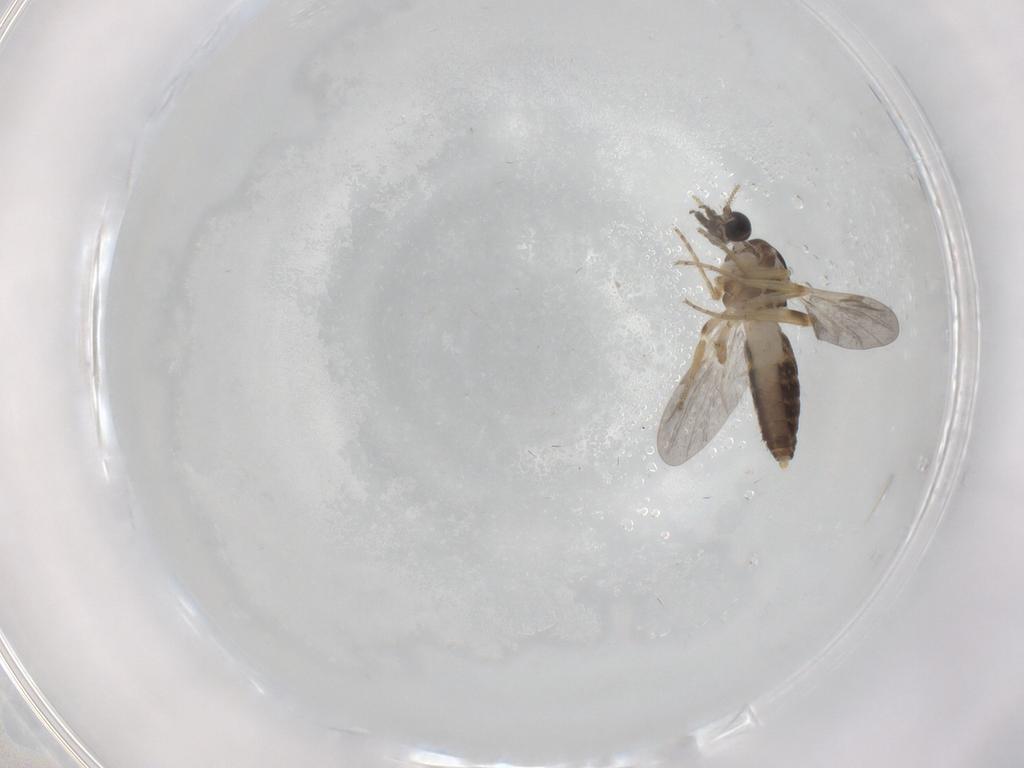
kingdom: Animalia
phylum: Arthropoda
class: Insecta
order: Diptera
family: Ceratopogonidae
